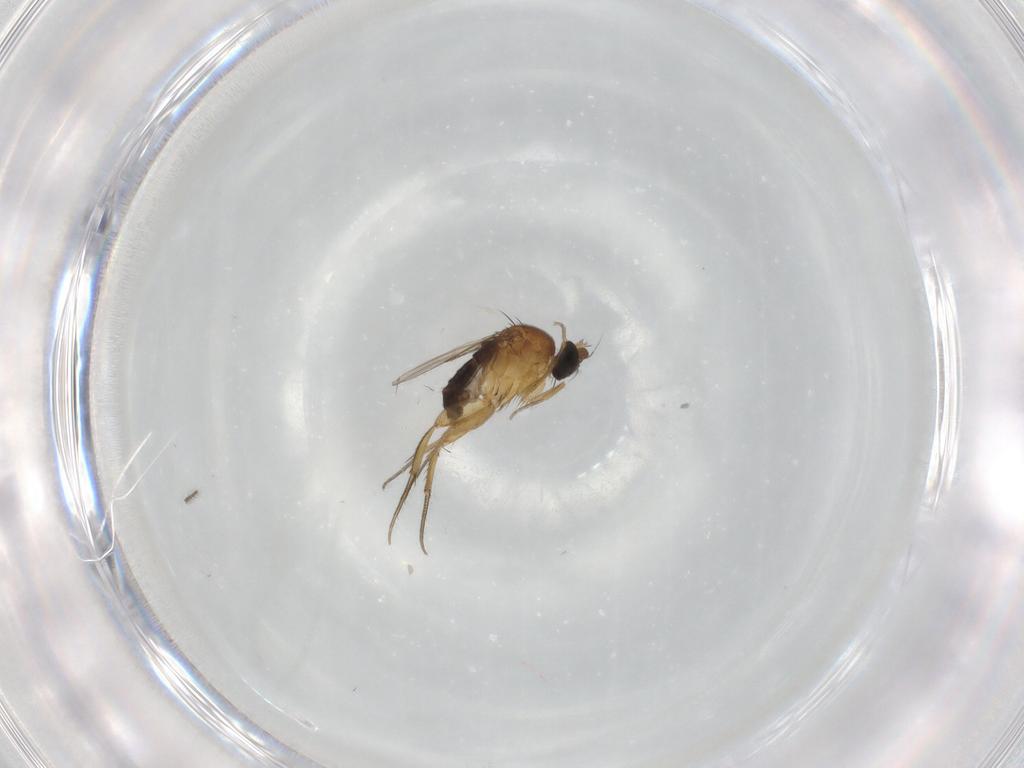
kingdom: Animalia
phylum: Arthropoda
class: Insecta
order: Diptera
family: Phoridae
